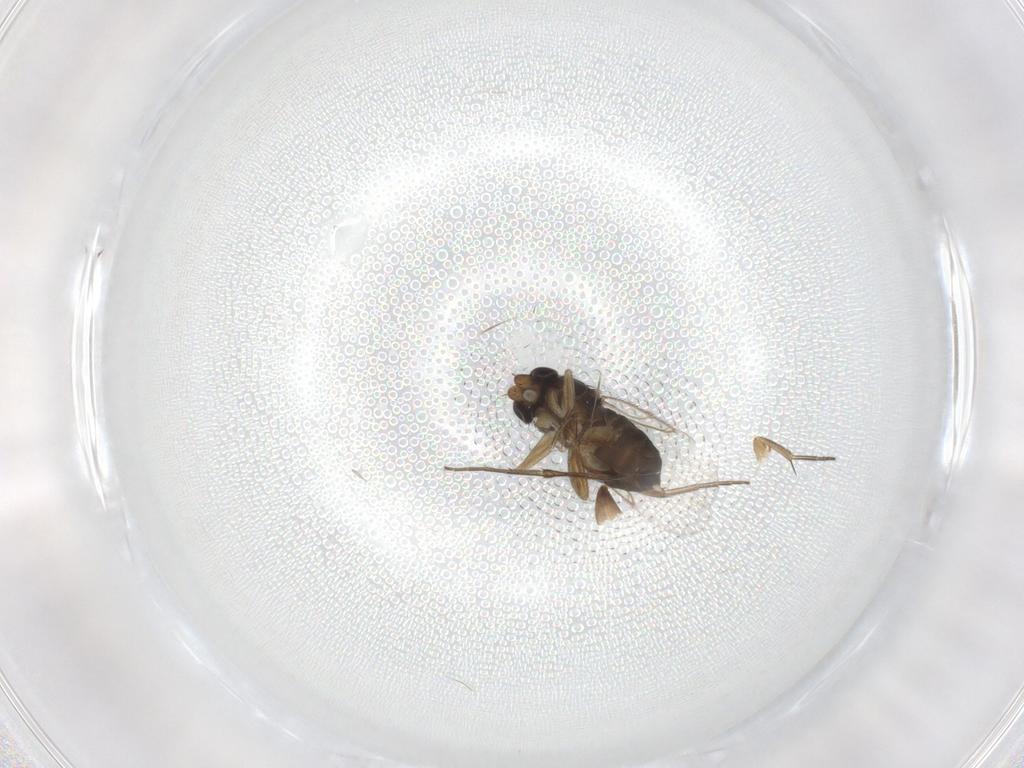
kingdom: Animalia
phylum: Arthropoda
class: Insecta
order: Diptera
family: Phoridae
